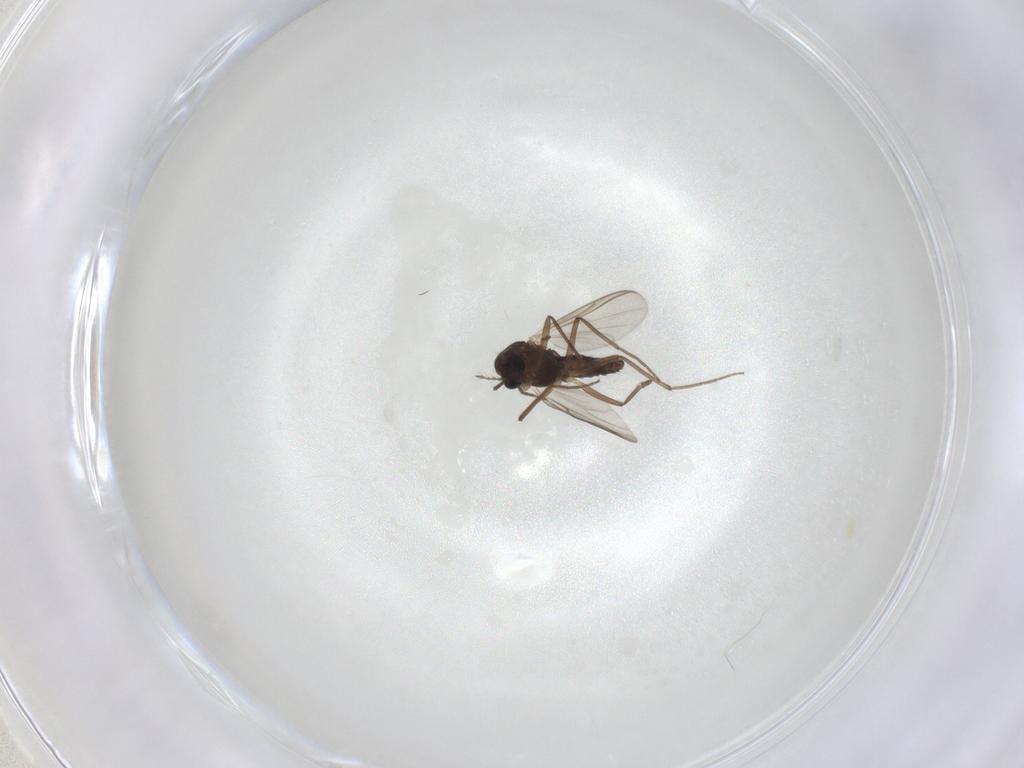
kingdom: Animalia
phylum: Arthropoda
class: Insecta
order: Diptera
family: Chironomidae
